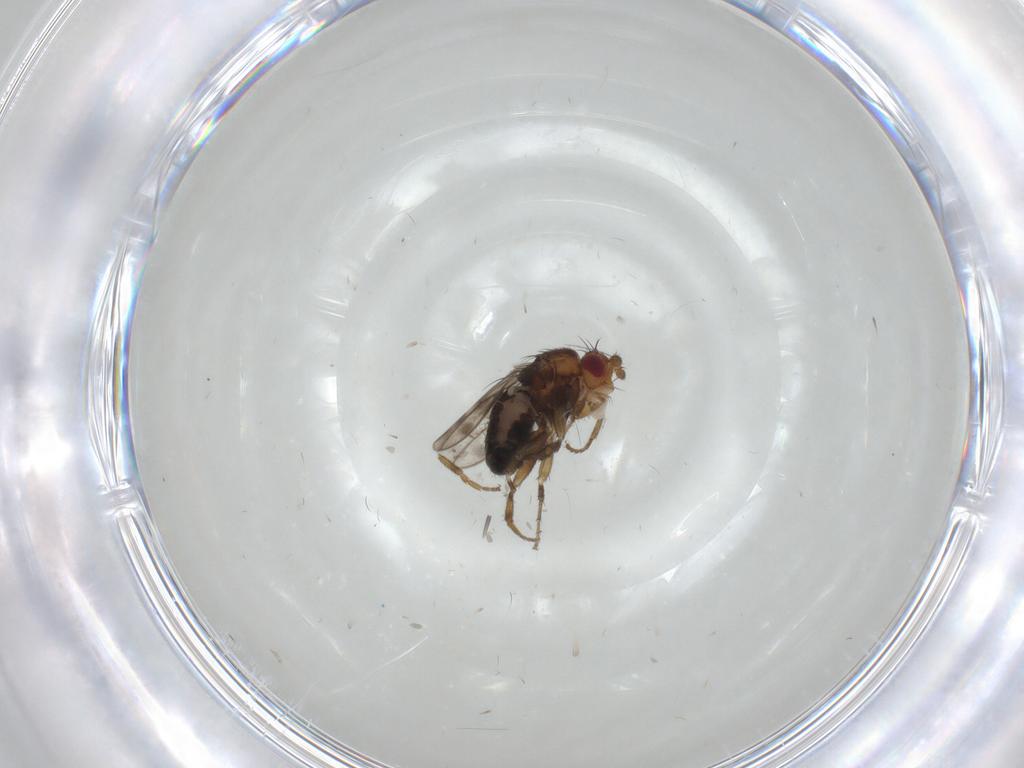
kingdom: Animalia
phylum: Arthropoda
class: Insecta
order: Diptera
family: Sphaeroceridae
